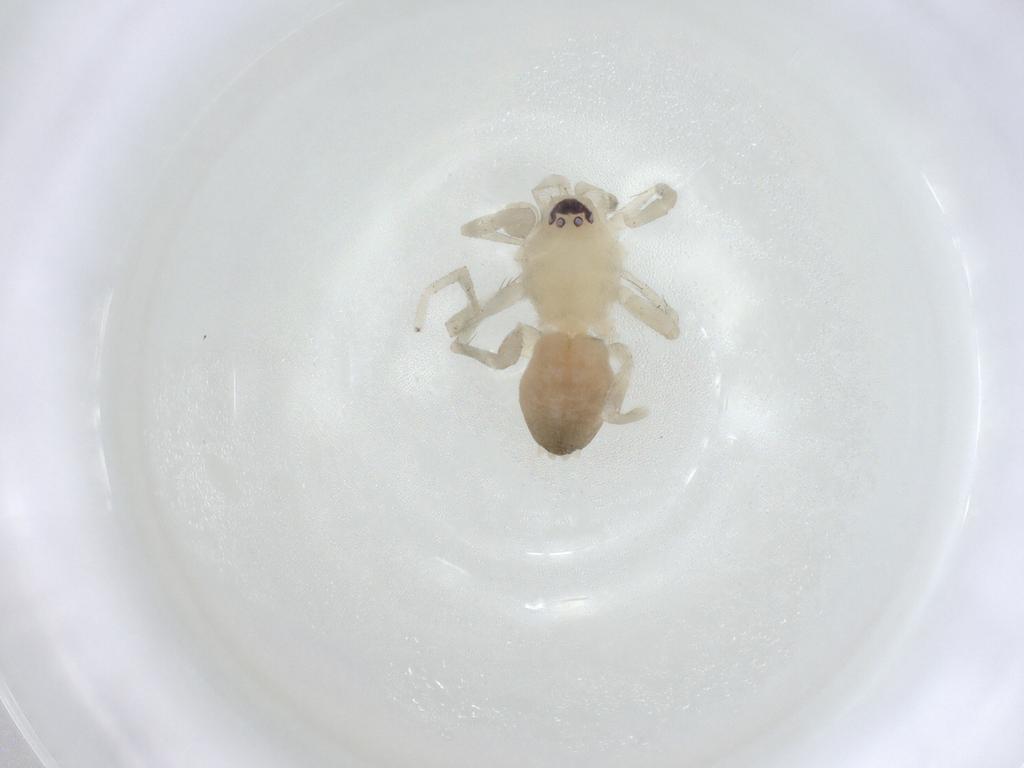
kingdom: Animalia
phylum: Arthropoda
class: Arachnida
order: Araneae
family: Gnaphosidae
